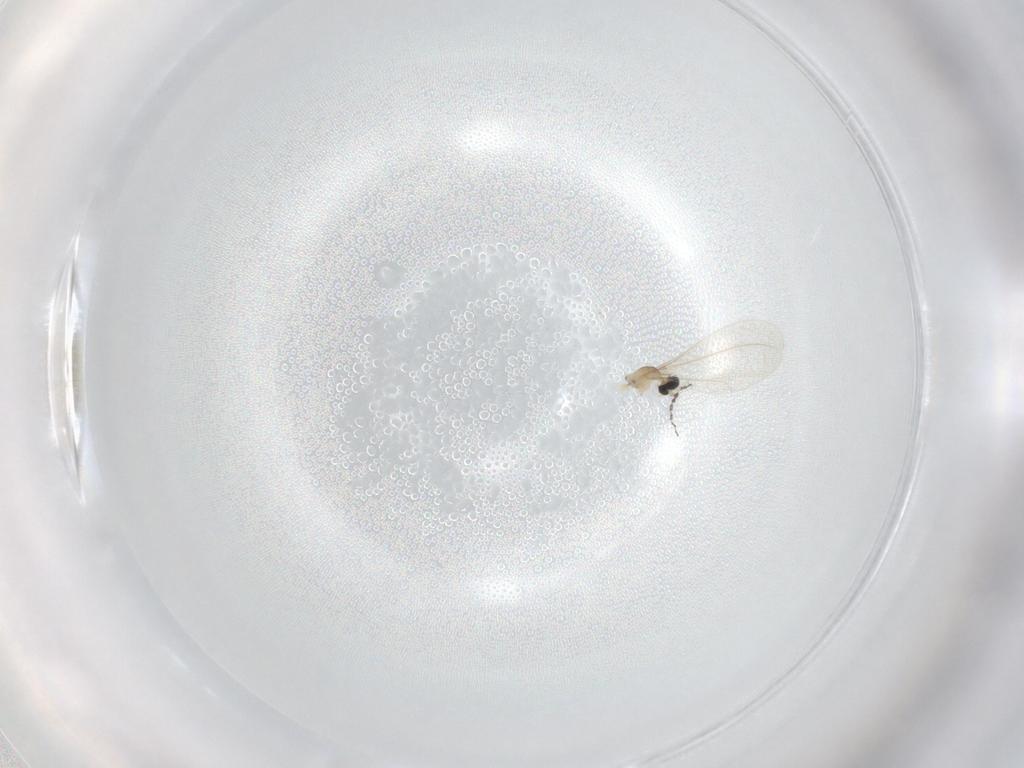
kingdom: Animalia
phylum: Arthropoda
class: Insecta
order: Diptera
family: Cecidomyiidae
